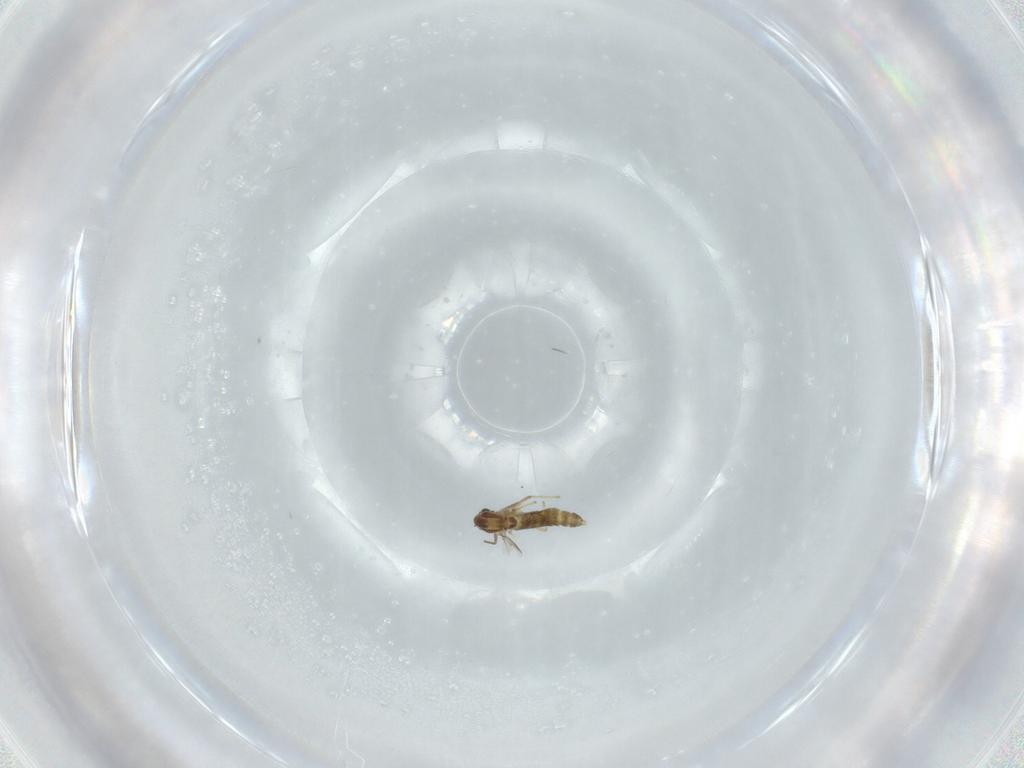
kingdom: Animalia
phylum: Arthropoda
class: Insecta
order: Diptera
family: Chironomidae
